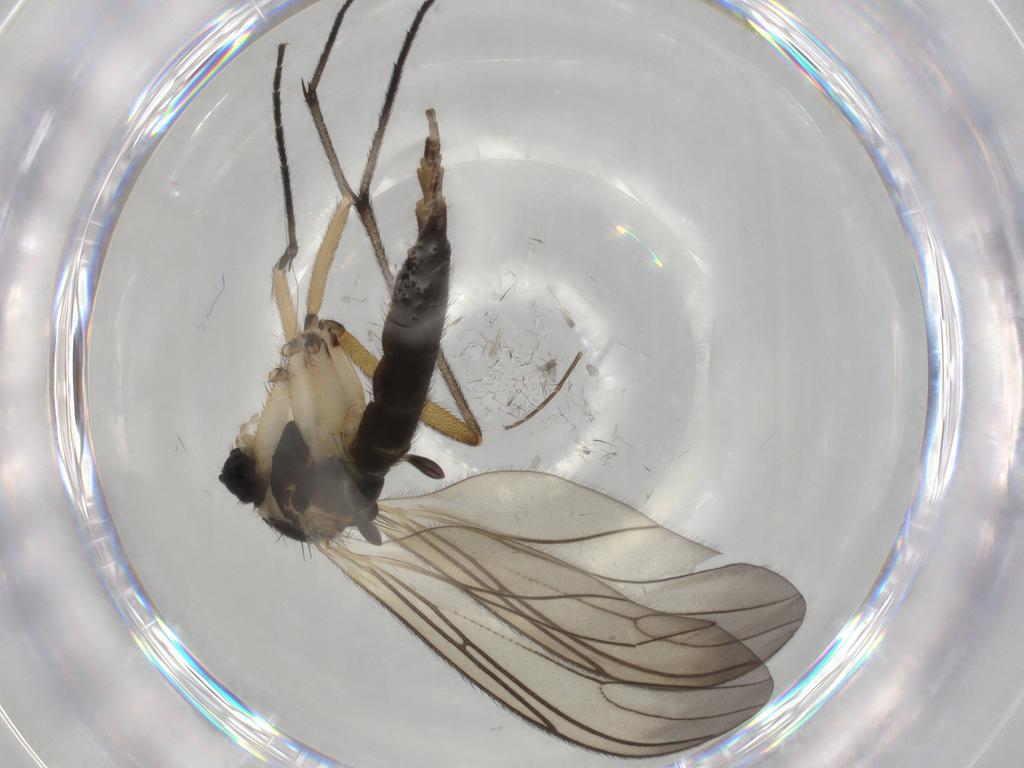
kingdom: Animalia
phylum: Arthropoda
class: Insecta
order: Diptera
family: Sciaridae
